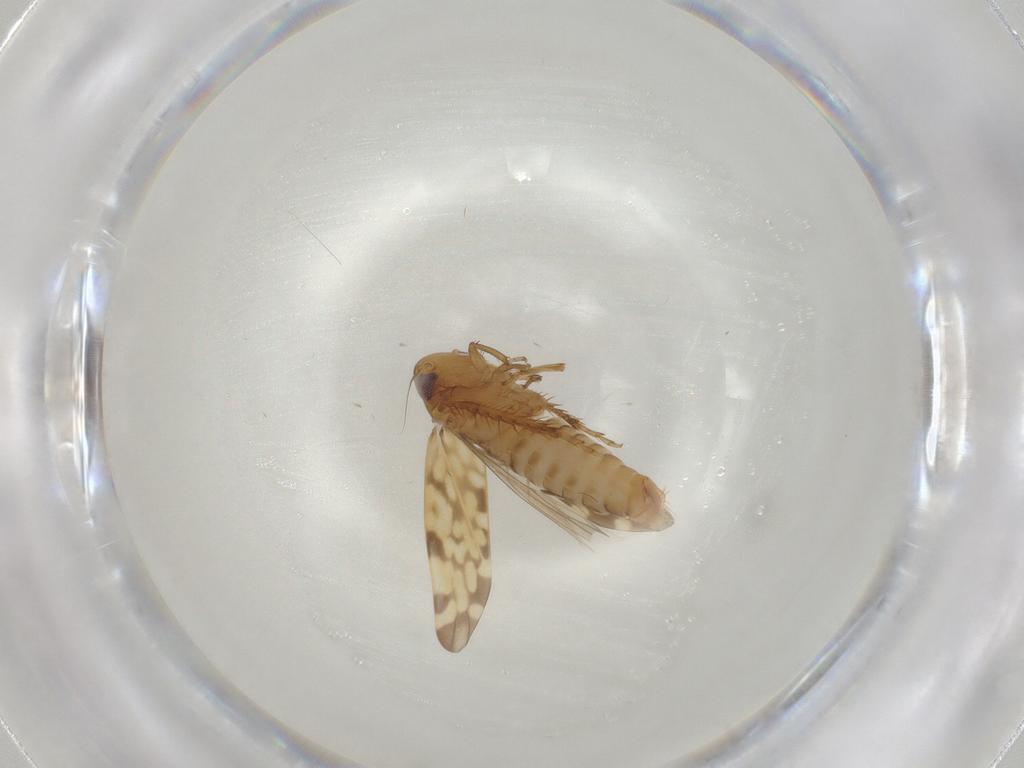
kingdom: Animalia
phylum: Arthropoda
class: Insecta
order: Hemiptera
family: Cicadellidae
